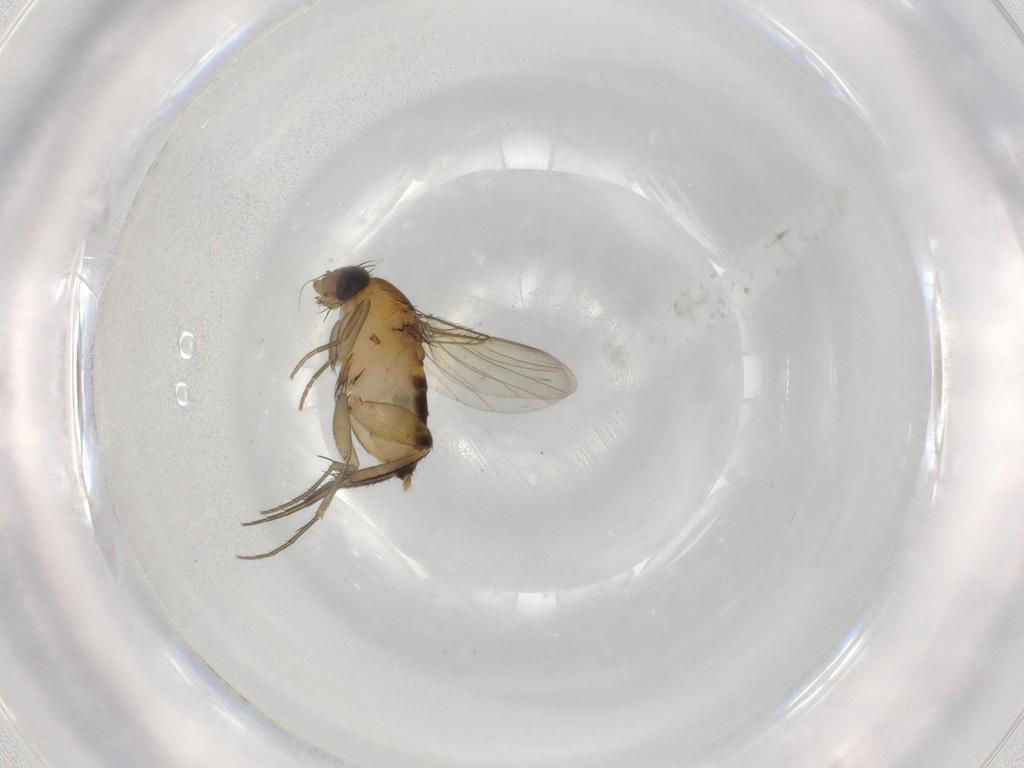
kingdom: Animalia
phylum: Arthropoda
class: Insecta
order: Diptera
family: Phoridae
